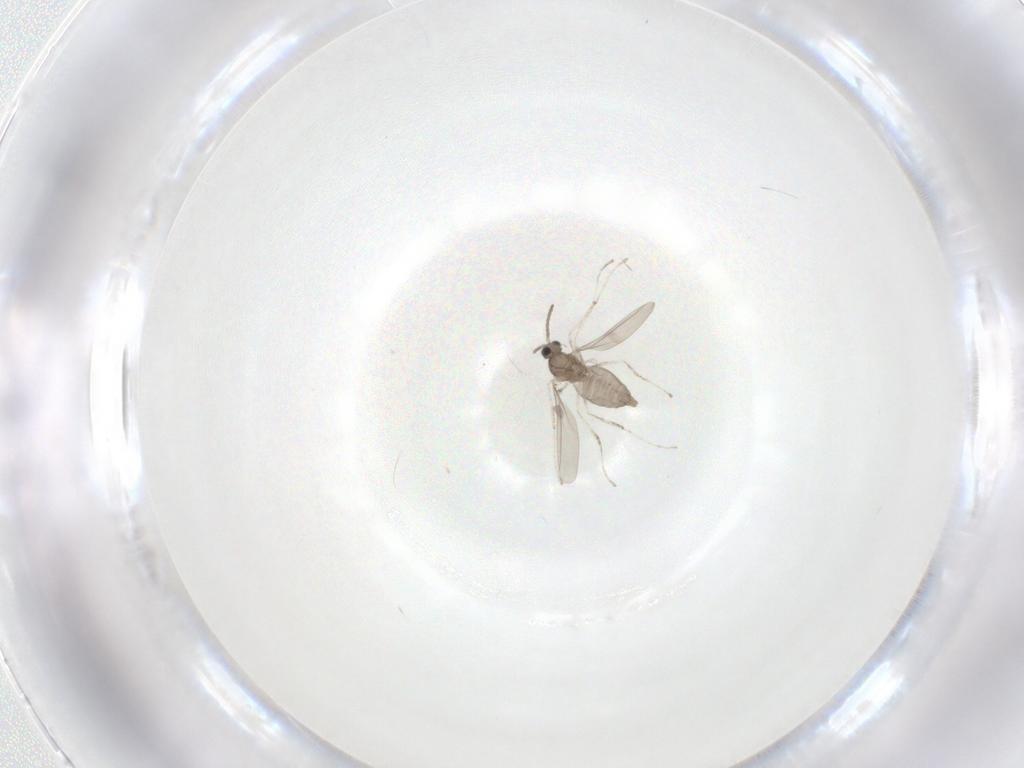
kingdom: Animalia
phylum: Arthropoda
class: Insecta
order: Diptera
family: Cecidomyiidae
